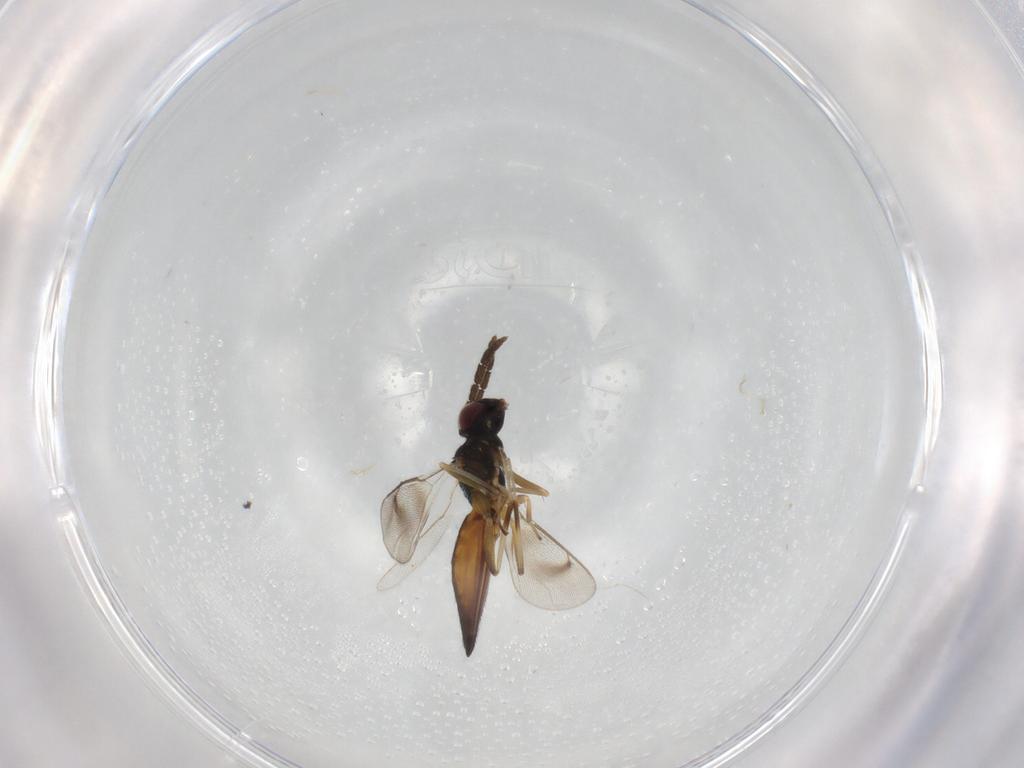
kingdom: Animalia
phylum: Arthropoda
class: Insecta
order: Hymenoptera
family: Eulophidae
